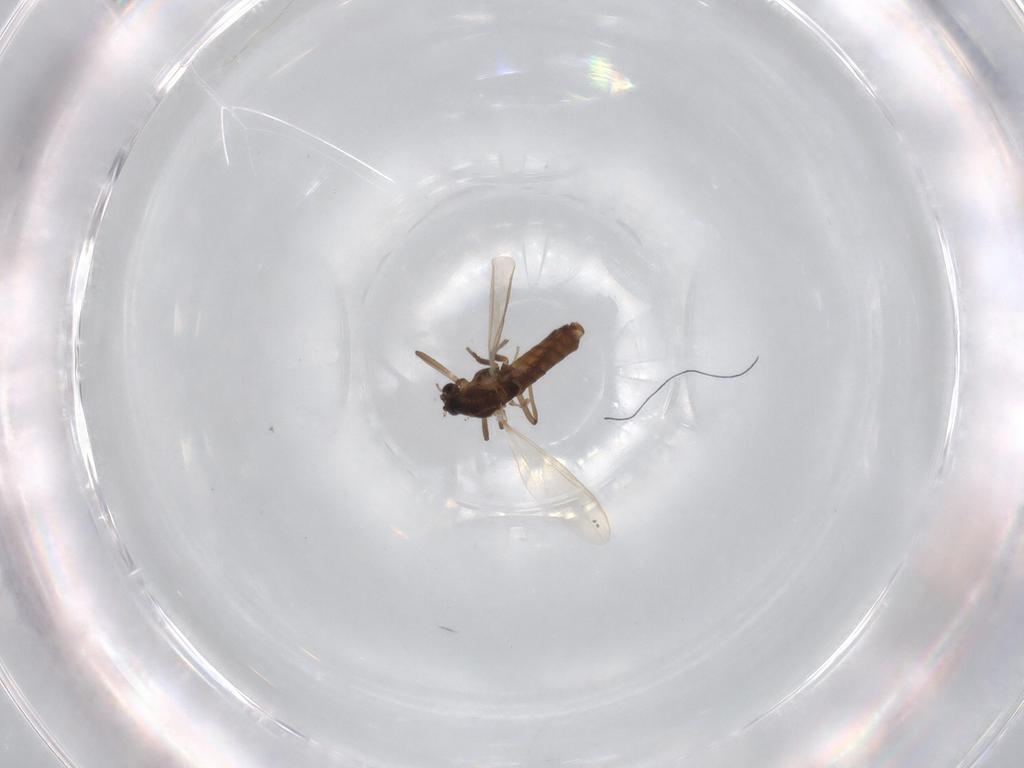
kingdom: Animalia
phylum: Arthropoda
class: Insecta
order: Diptera
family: Chironomidae
